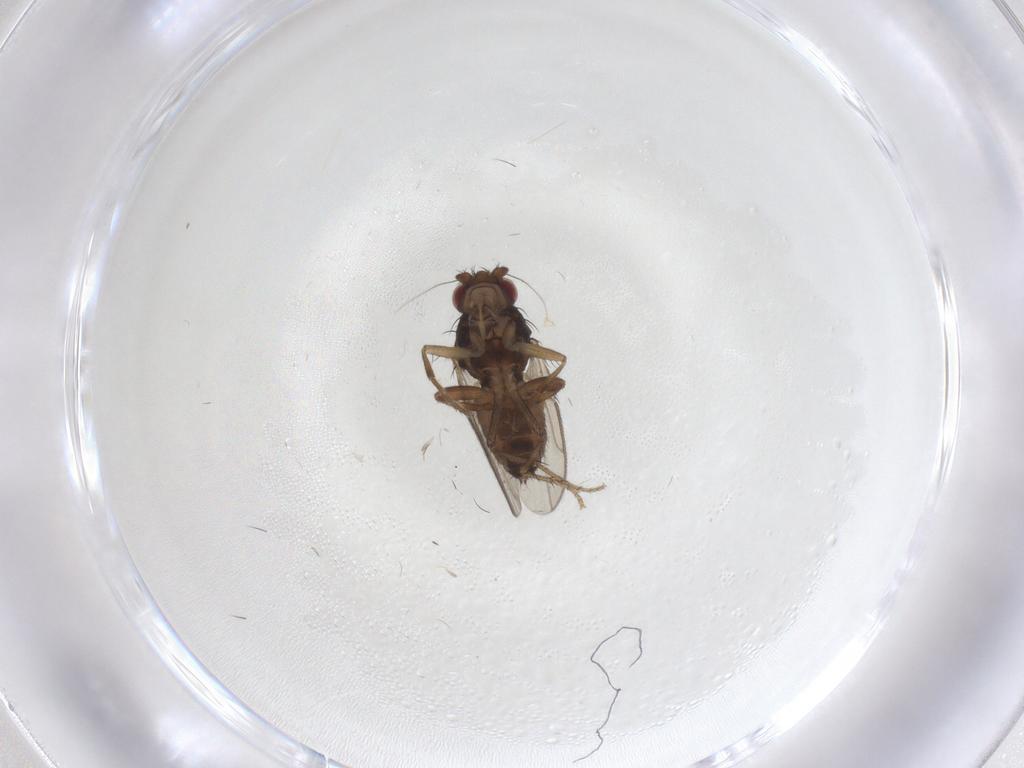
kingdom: Animalia
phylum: Arthropoda
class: Insecta
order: Diptera
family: Sphaeroceridae
